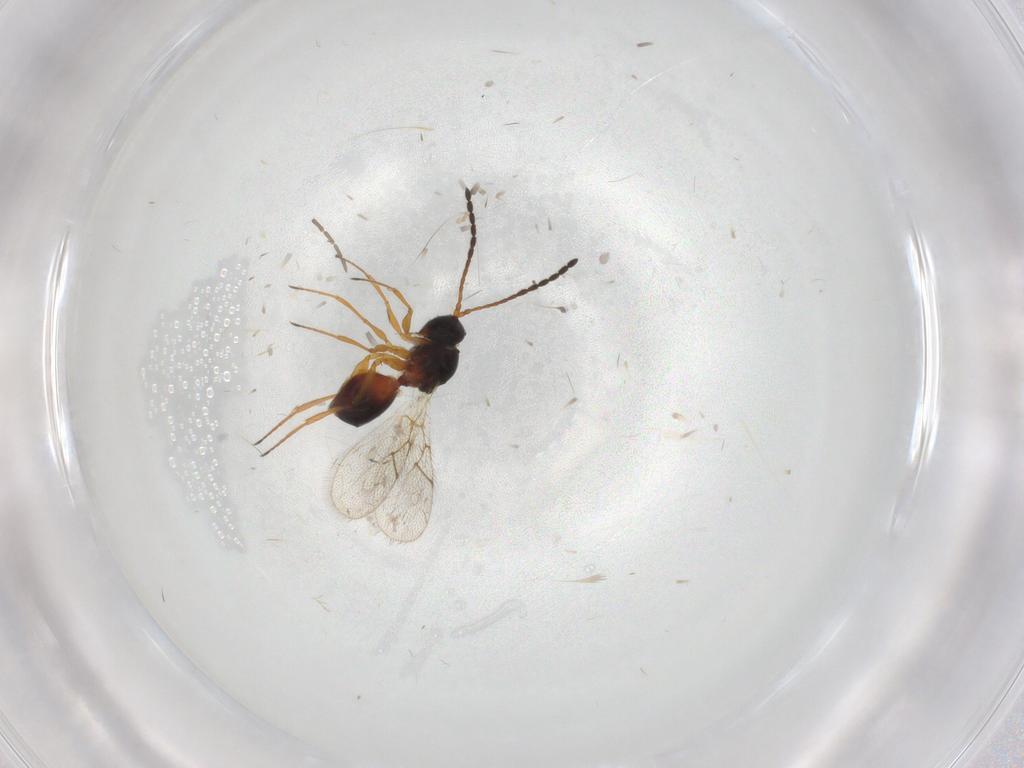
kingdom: Animalia
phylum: Arthropoda
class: Insecta
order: Hymenoptera
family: Figitidae
